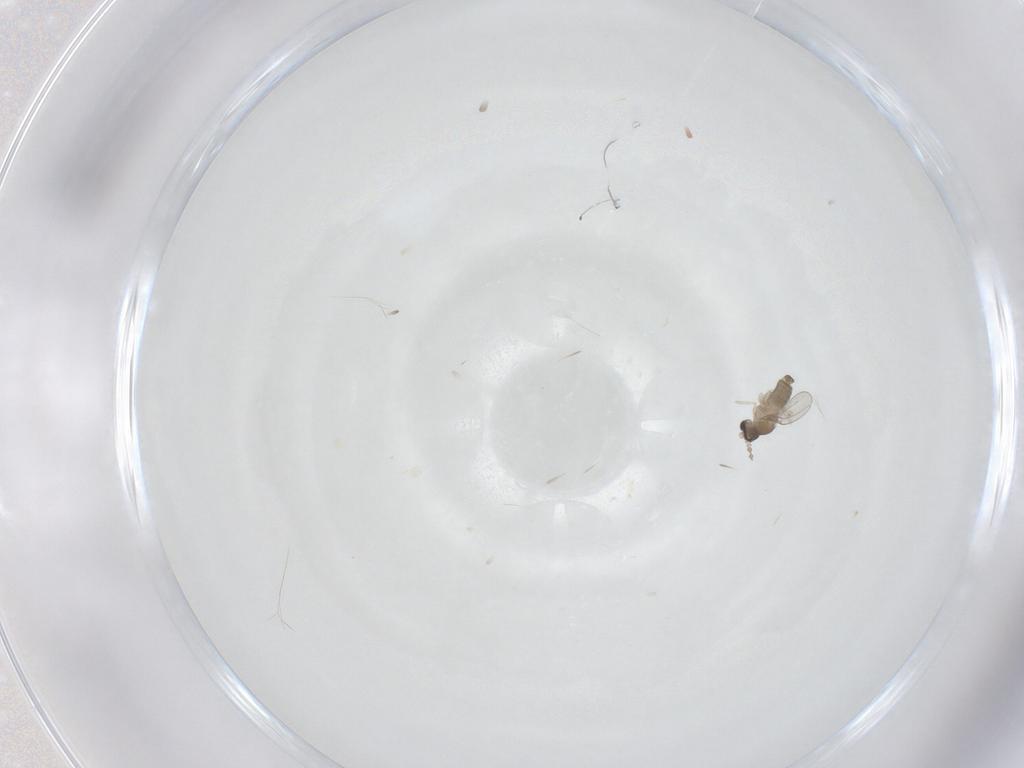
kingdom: Animalia
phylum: Arthropoda
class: Insecta
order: Diptera
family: Cecidomyiidae
